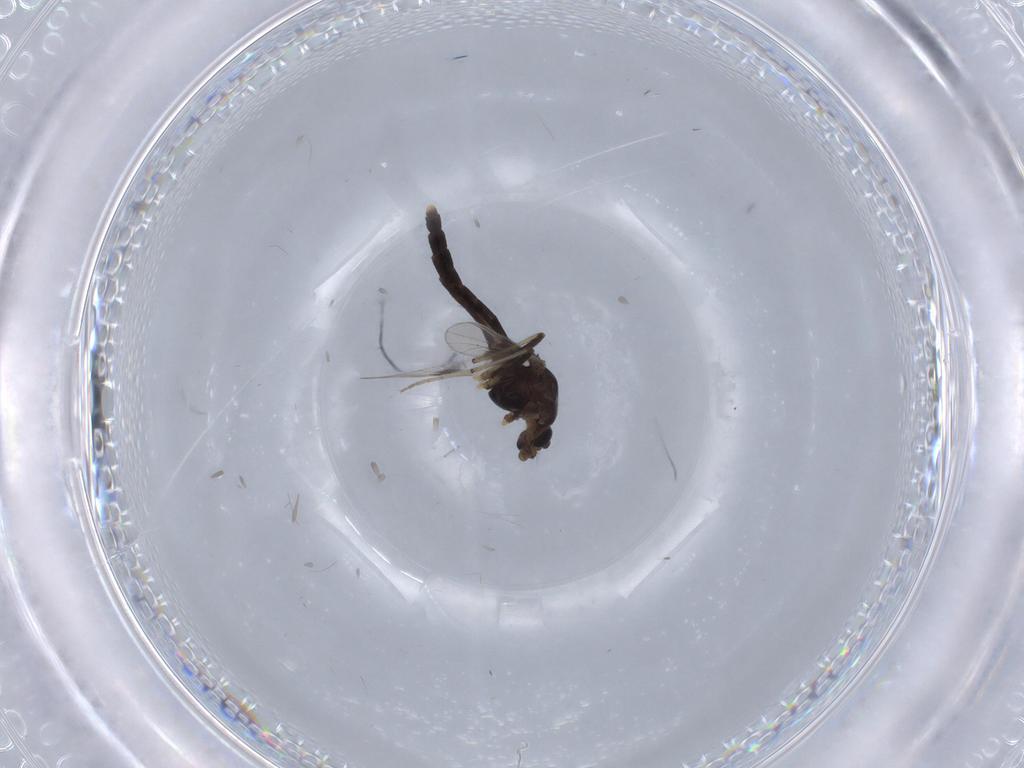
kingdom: Animalia
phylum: Arthropoda
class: Insecta
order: Diptera
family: Chironomidae
